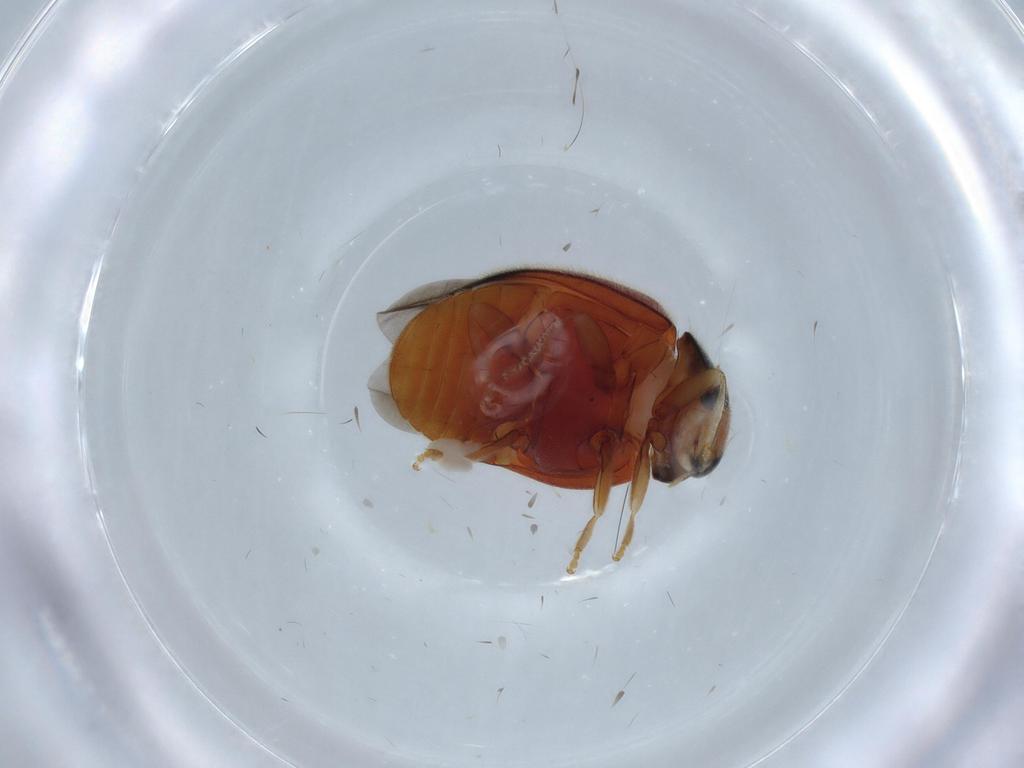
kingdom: Animalia
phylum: Arthropoda
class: Insecta
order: Coleoptera
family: Coccinellidae
